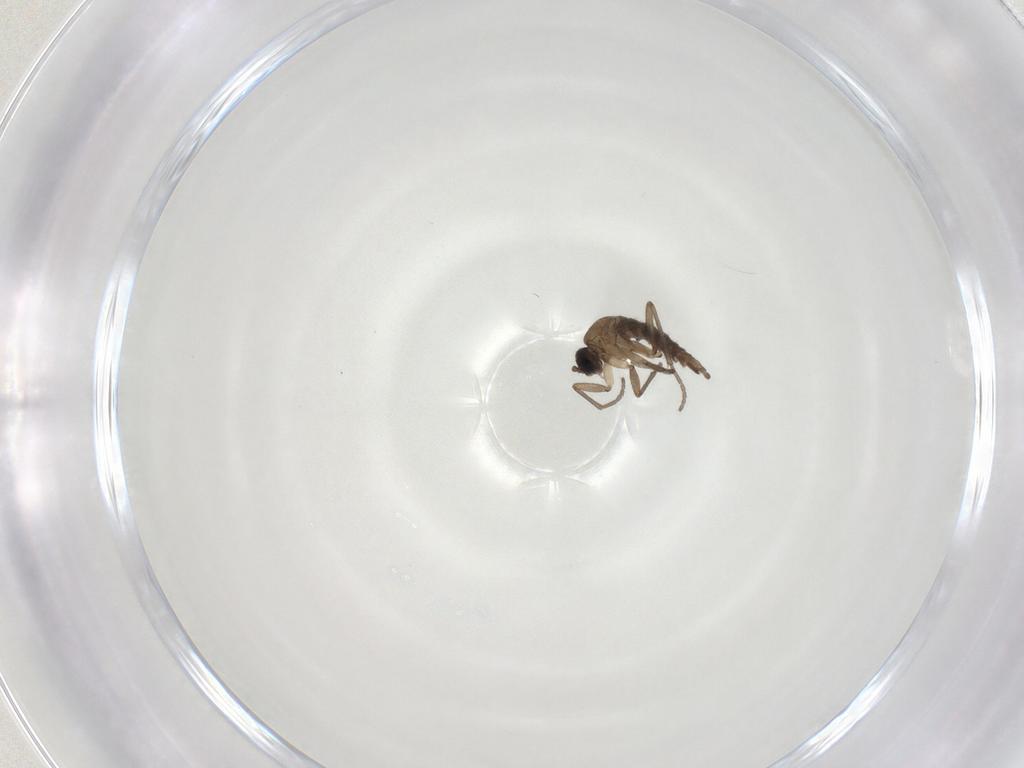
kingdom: Animalia
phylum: Arthropoda
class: Insecta
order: Diptera
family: Sciaridae
